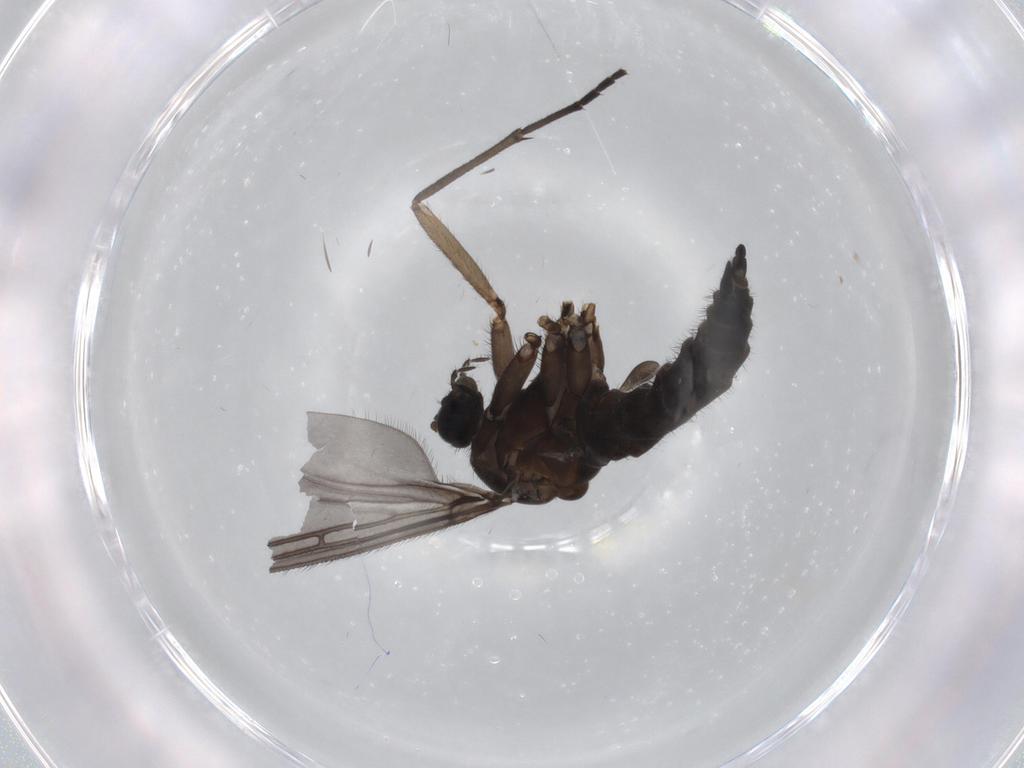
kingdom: Animalia
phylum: Arthropoda
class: Insecta
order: Diptera
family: Sciaridae
